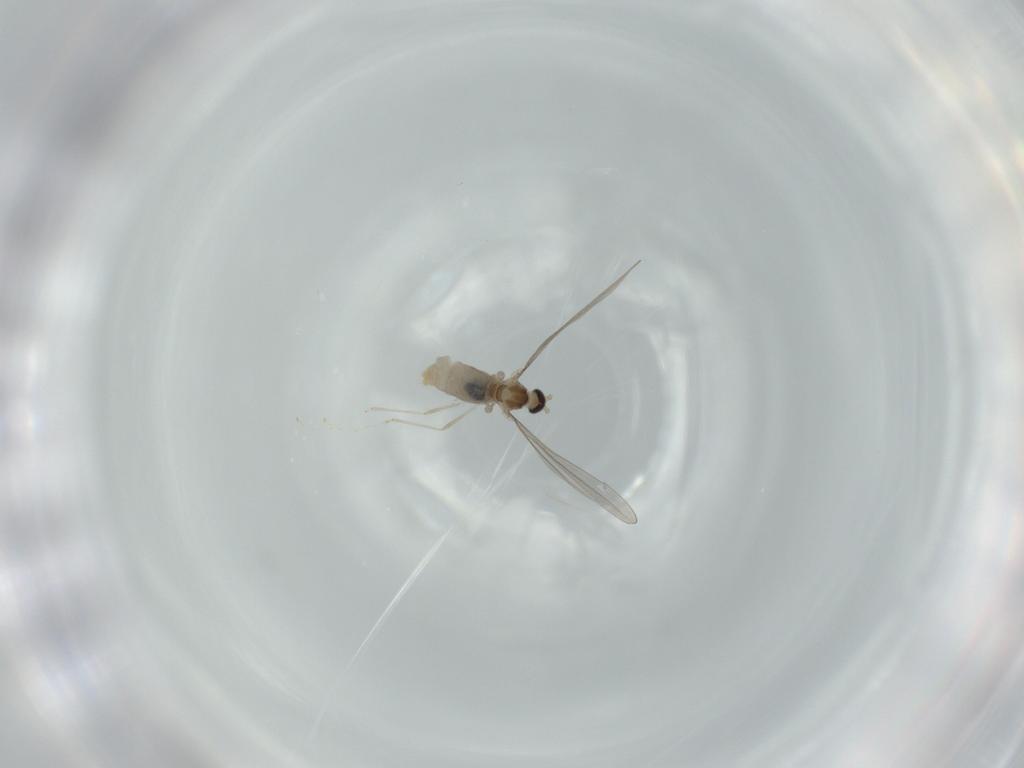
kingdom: Animalia
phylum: Arthropoda
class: Insecta
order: Diptera
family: Cecidomyiidae
